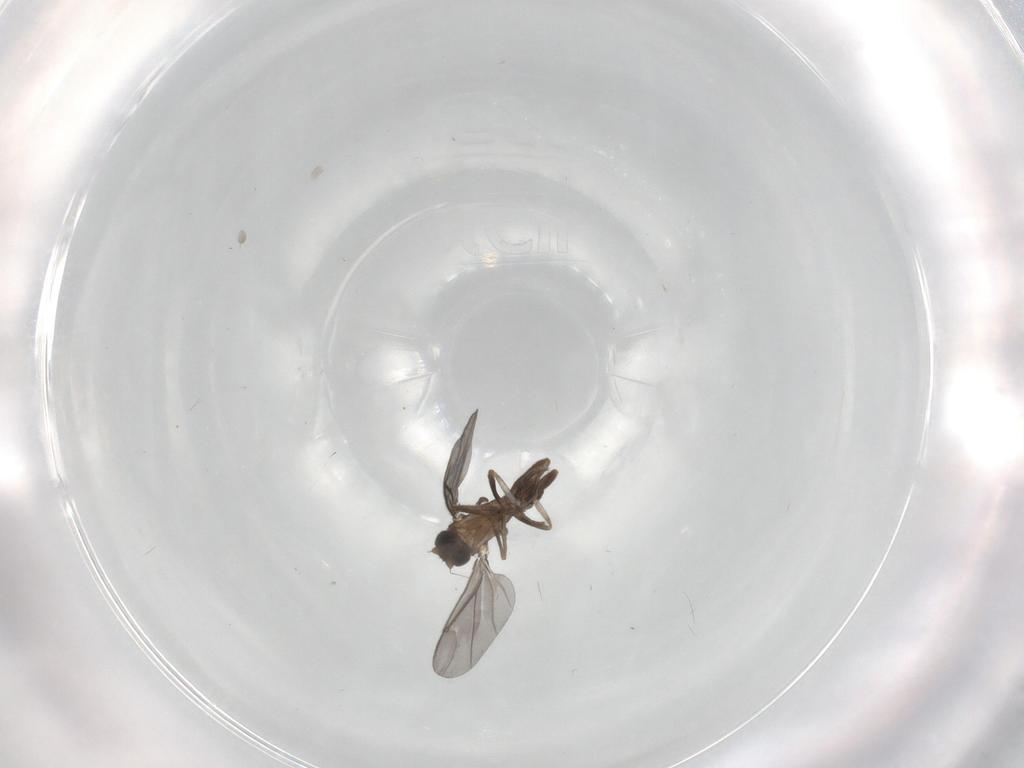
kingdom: Animalia
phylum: Arthropoda
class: Insecta
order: Diptera
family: Phoridae
